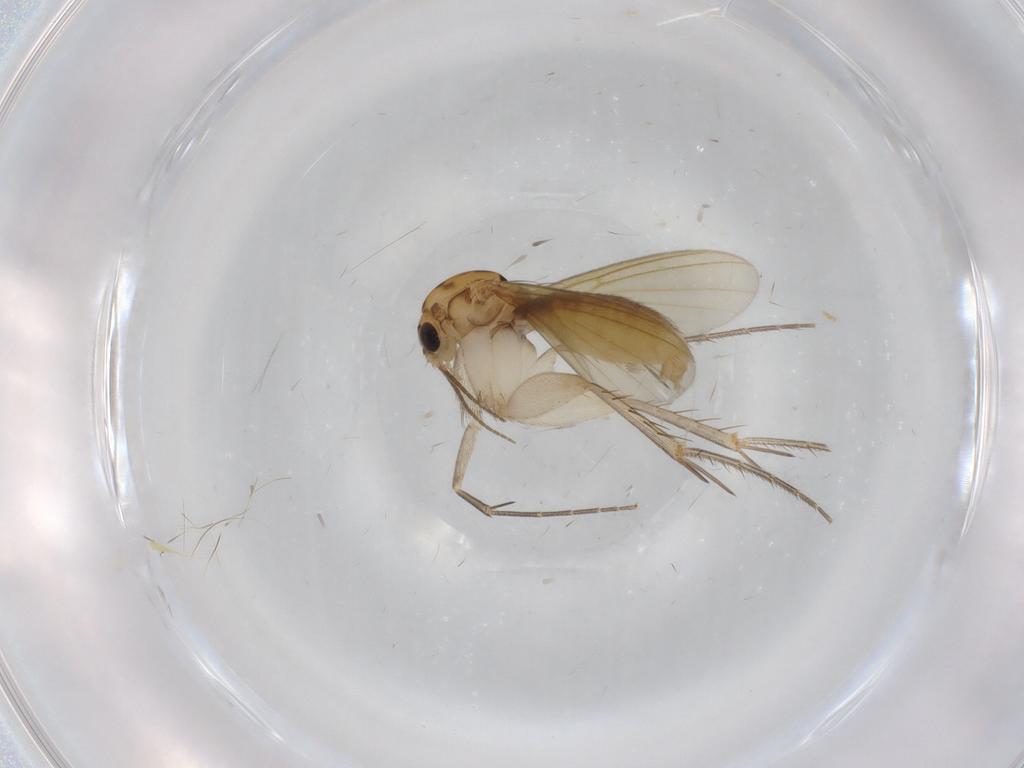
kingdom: Animalia
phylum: Arthropoda
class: Insecta
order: Diptera
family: Mycetophilidae
